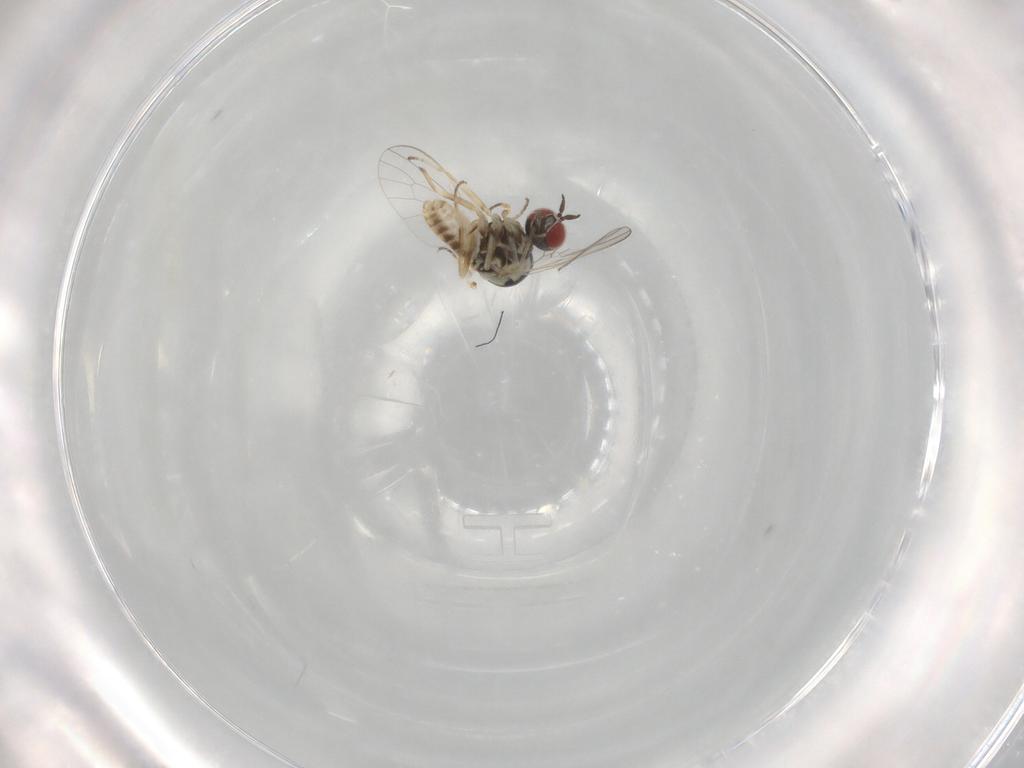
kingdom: Animalia
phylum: Arthropoda
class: Insecta
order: Diptera
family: Bombyliidae
